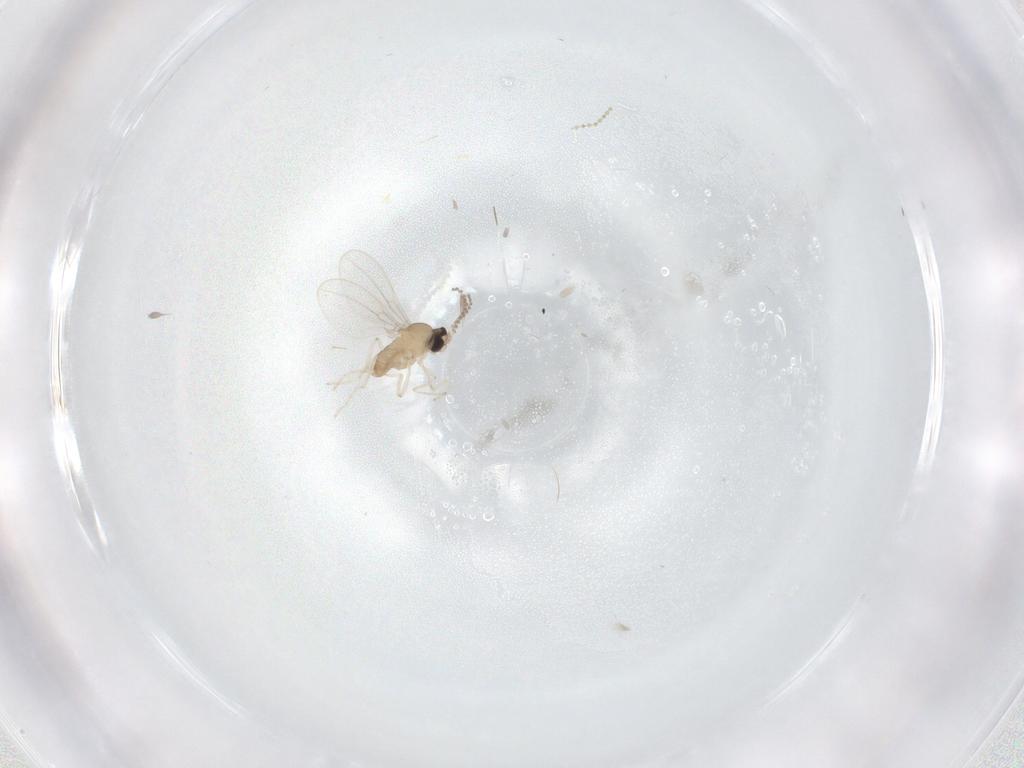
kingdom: Animalia
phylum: Arthropoda
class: Insecta
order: Diptera
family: Cecidomyiidae
